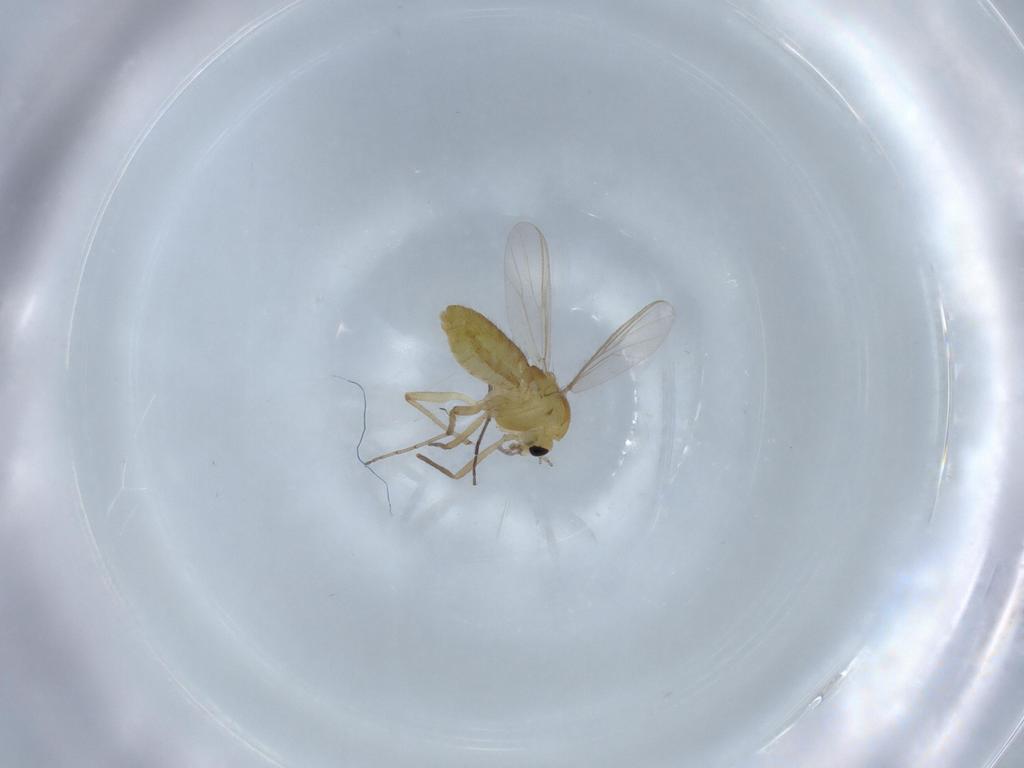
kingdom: Animalia
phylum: Arthropoda
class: Insecta
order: Diptera
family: Chironomidae
